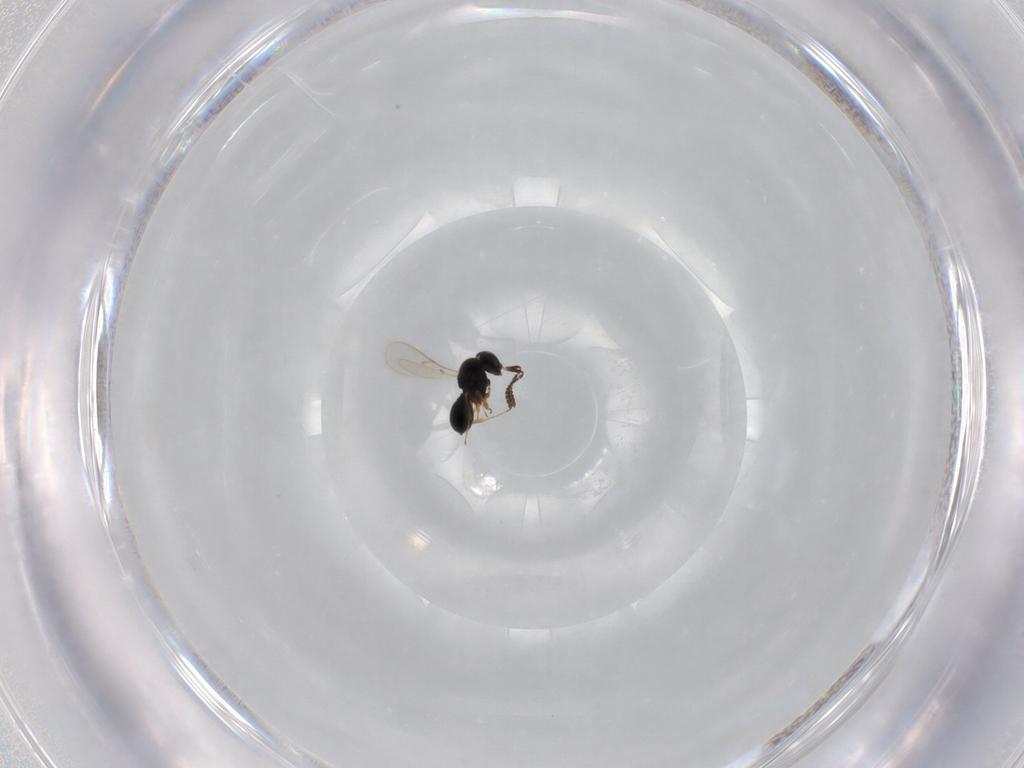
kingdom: Animalia
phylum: Arthropoda
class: Insecta
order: Hymenoptera
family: Scelionidae
